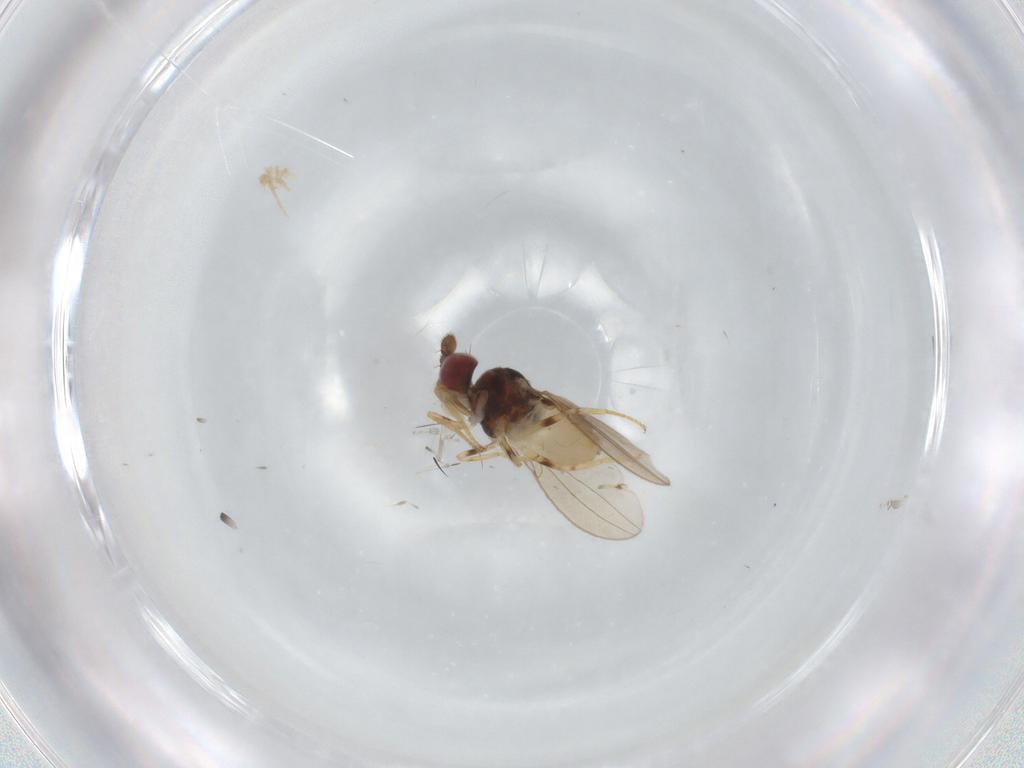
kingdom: Animalia
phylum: Arthropoda
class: Insecta
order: Diptera
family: Asteiidae
